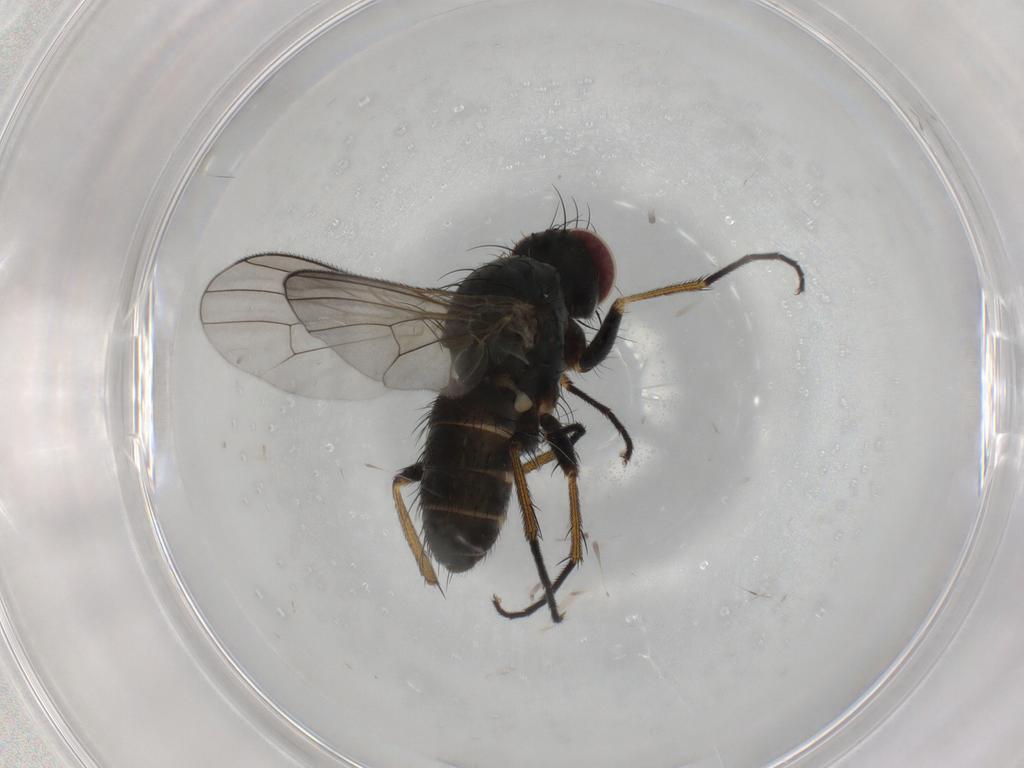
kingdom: Animalia
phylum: Arthropoda
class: Insecta
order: Diptera
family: Muscidae
